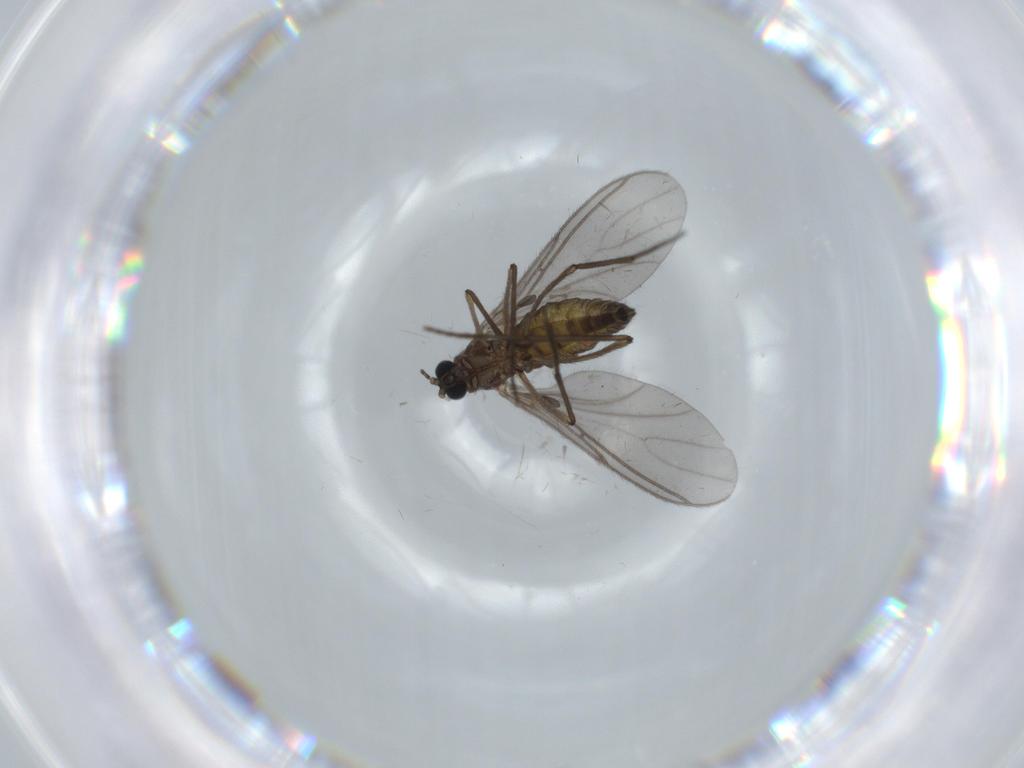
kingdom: Animalia
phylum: Arthropoda
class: Insecta
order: Diptera
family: Sciaridae
